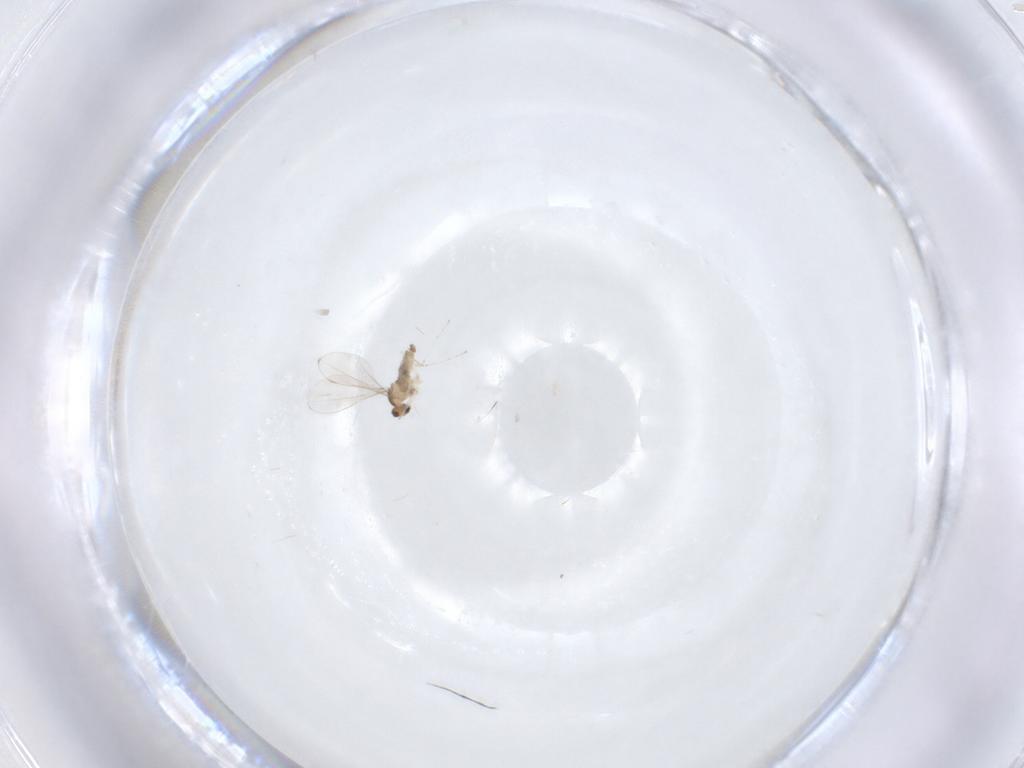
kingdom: Animalia
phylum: Arthropoda
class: Insecta
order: Diptera
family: Cecidomyiidae
